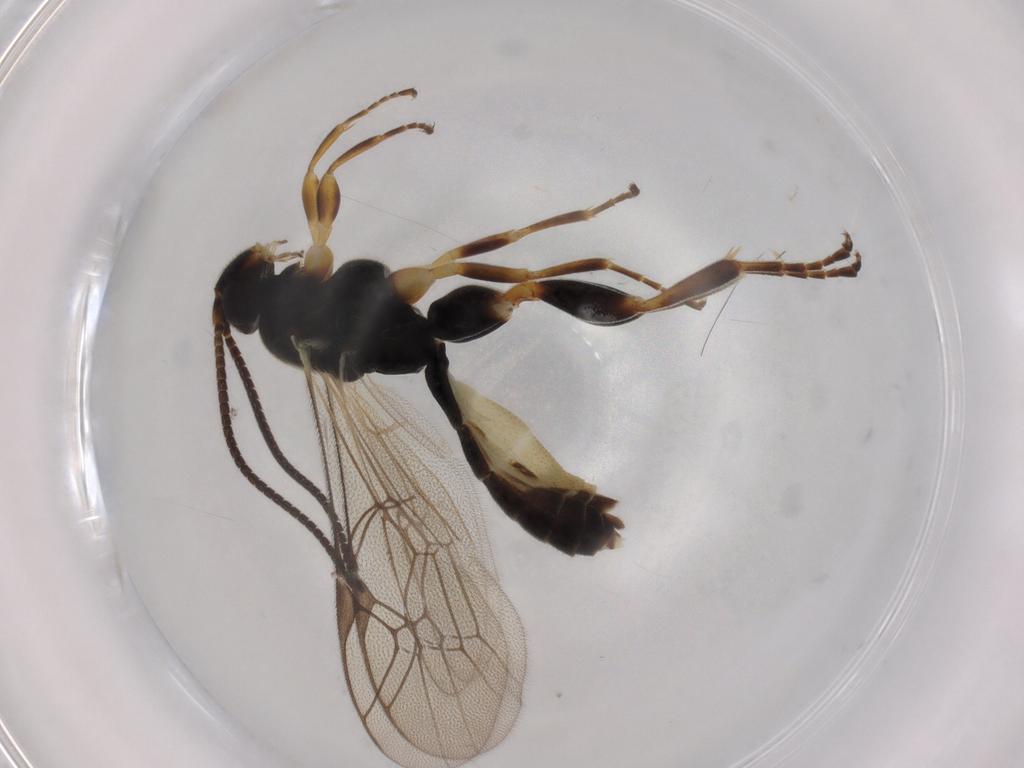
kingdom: Animalia
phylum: Arthropoda
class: Insecta
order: Hymenoptera
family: Ichneumonidae
